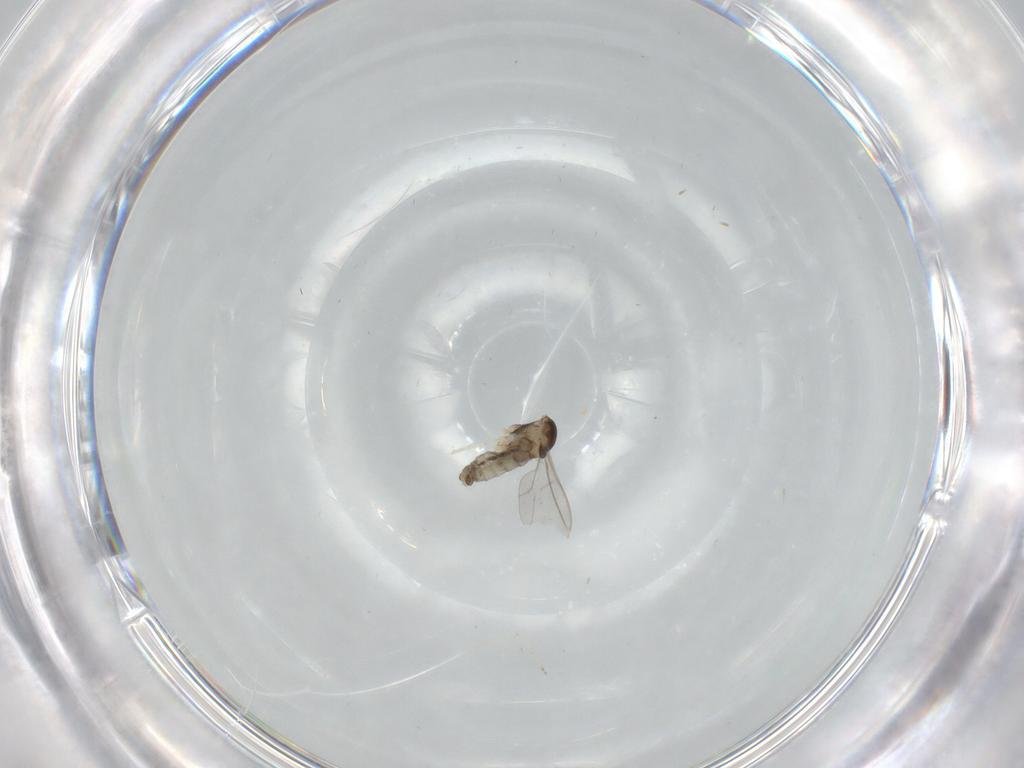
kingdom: Animalia
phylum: Arthropoda
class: Insecta
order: Diptera
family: Cecidomyiidae
